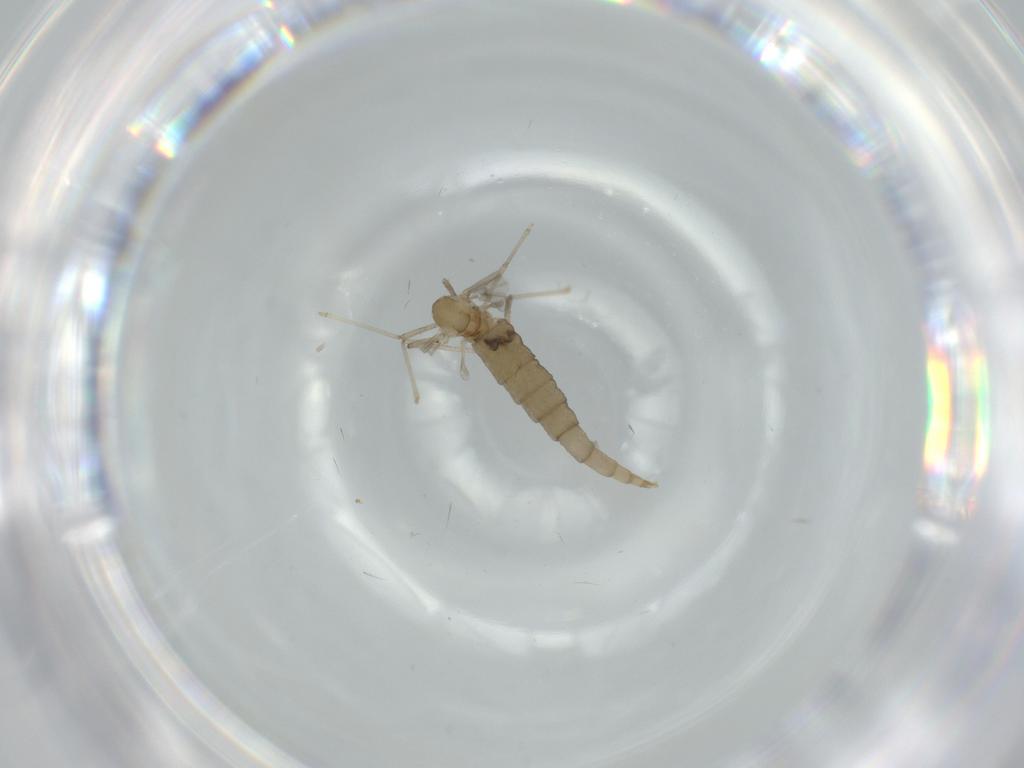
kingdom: Animalia
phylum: Arthropoda
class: Insecta
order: Diptera
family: Cecidomyiidae
